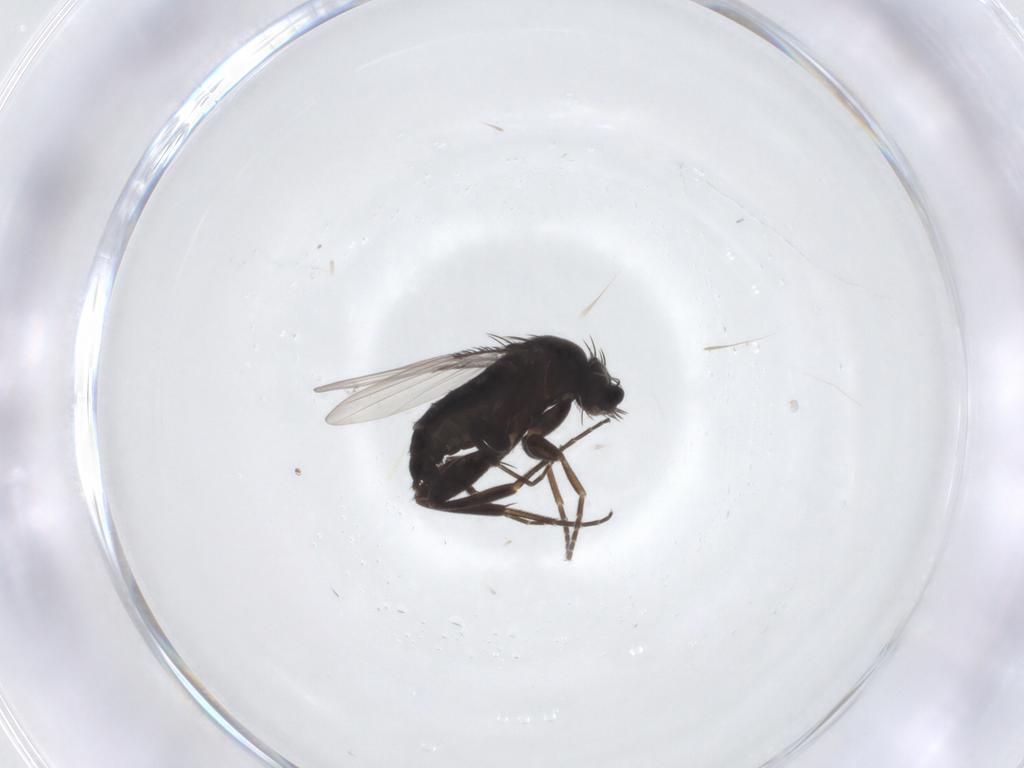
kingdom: Animalia
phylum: Arthropoda
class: Insecta
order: Diptera
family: Phoridae
